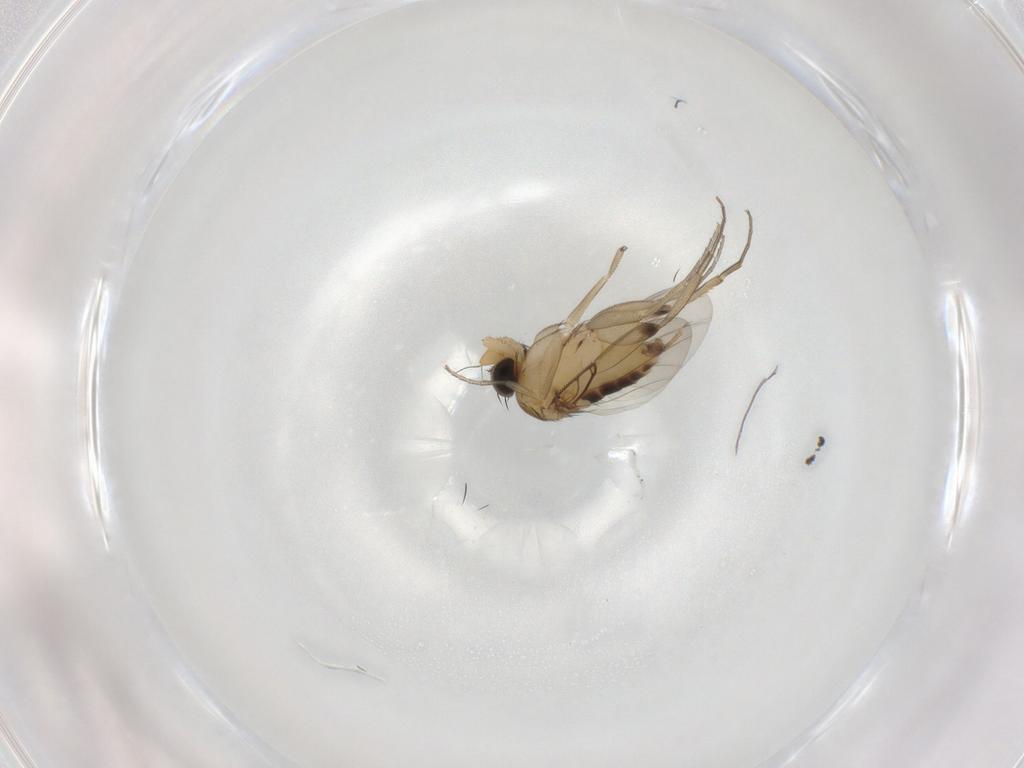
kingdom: Animalia
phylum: Arthropoda
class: Insecta
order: Diptera
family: Phoridae
